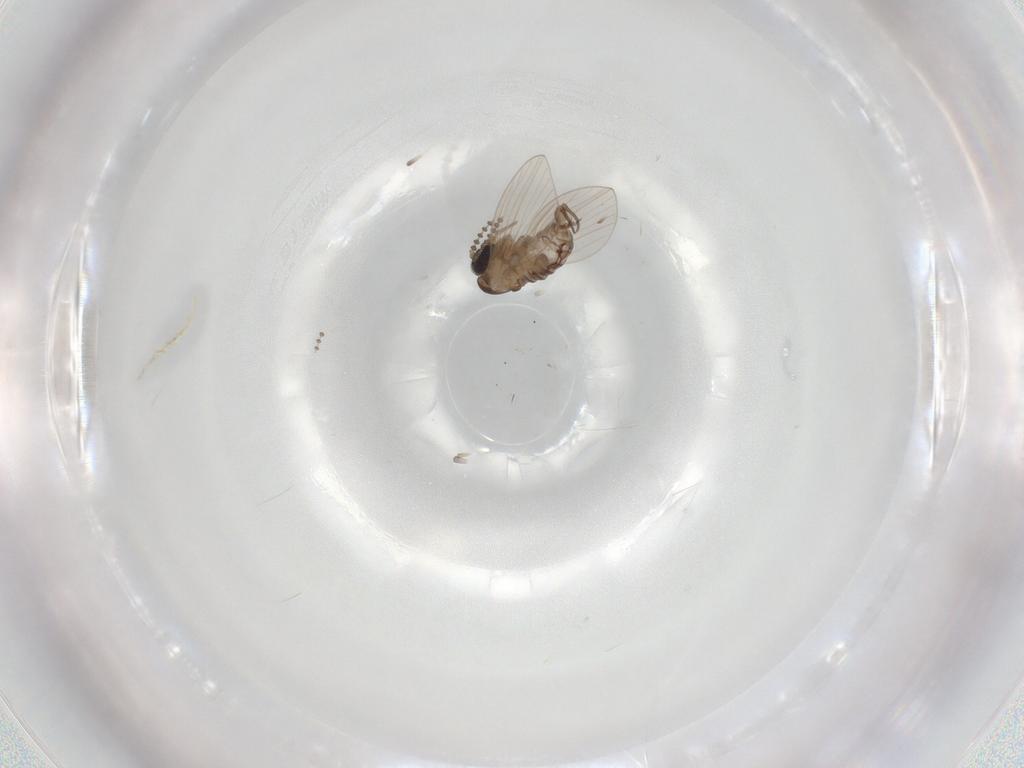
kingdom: Animalia
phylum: Arthropoda
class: Insecta
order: Diptera
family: Psychodidae
